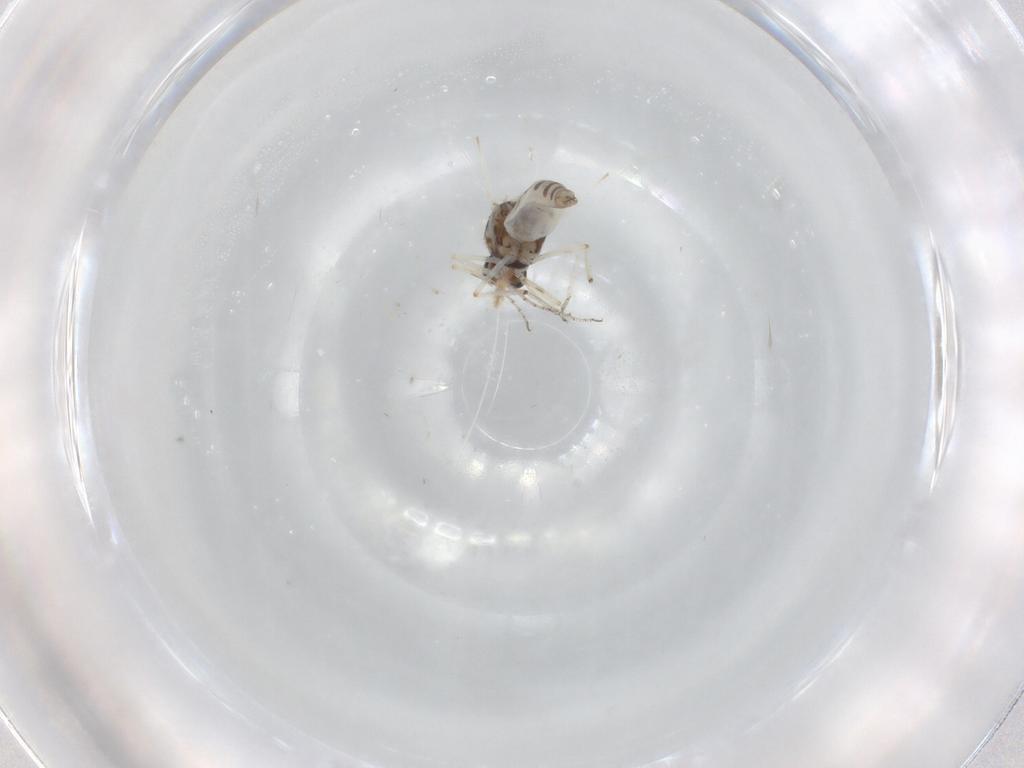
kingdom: Animalia
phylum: Arthropoda
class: Insecta
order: Diptera
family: Ceratopogonidae
